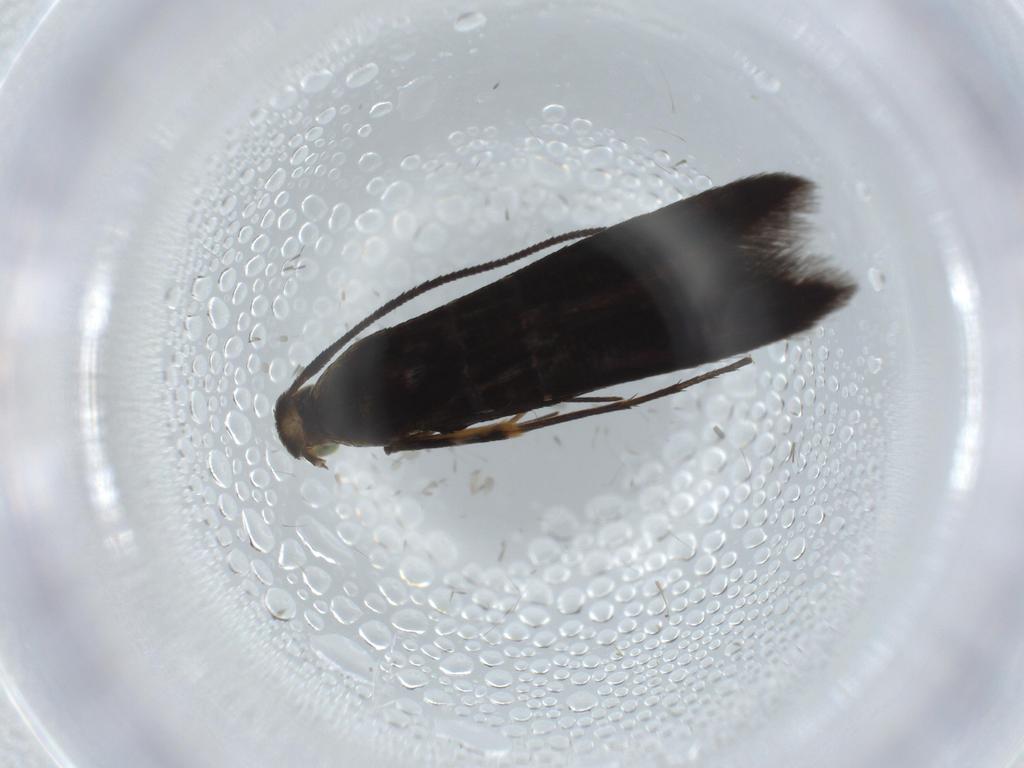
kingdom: Animalia
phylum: Arthropoda
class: Insecta
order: Lepidoptera
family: Heliodinidae
